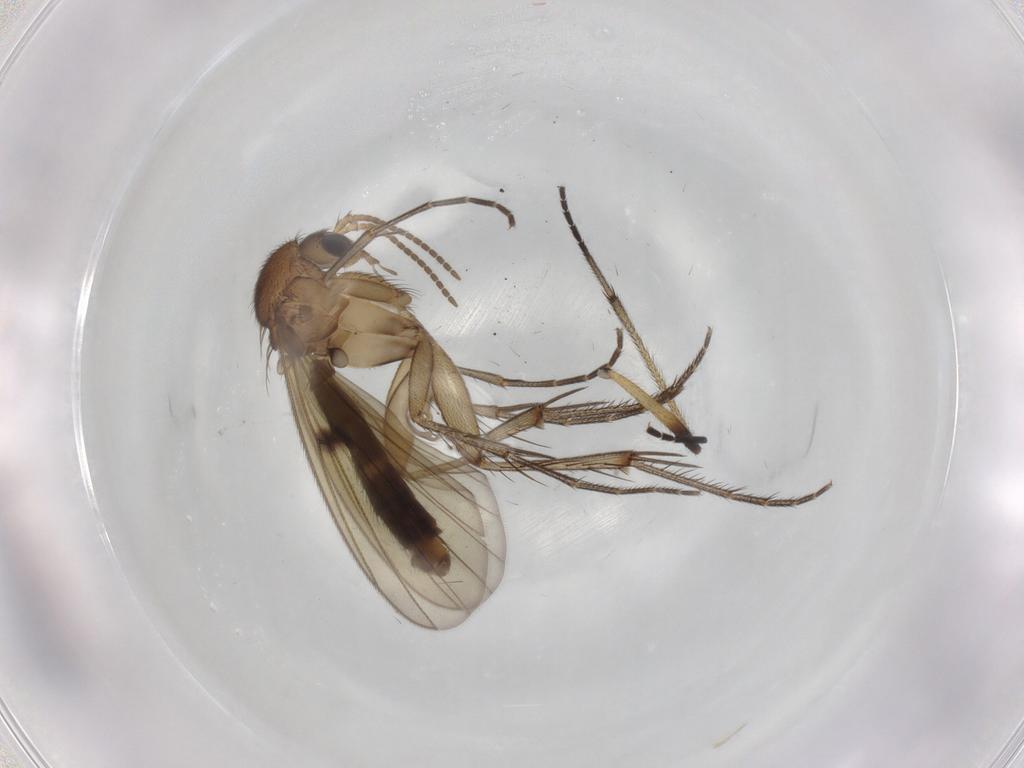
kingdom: Animalia
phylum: Arthropoda
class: Insecta
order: Diptera
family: Mycetophilidae
